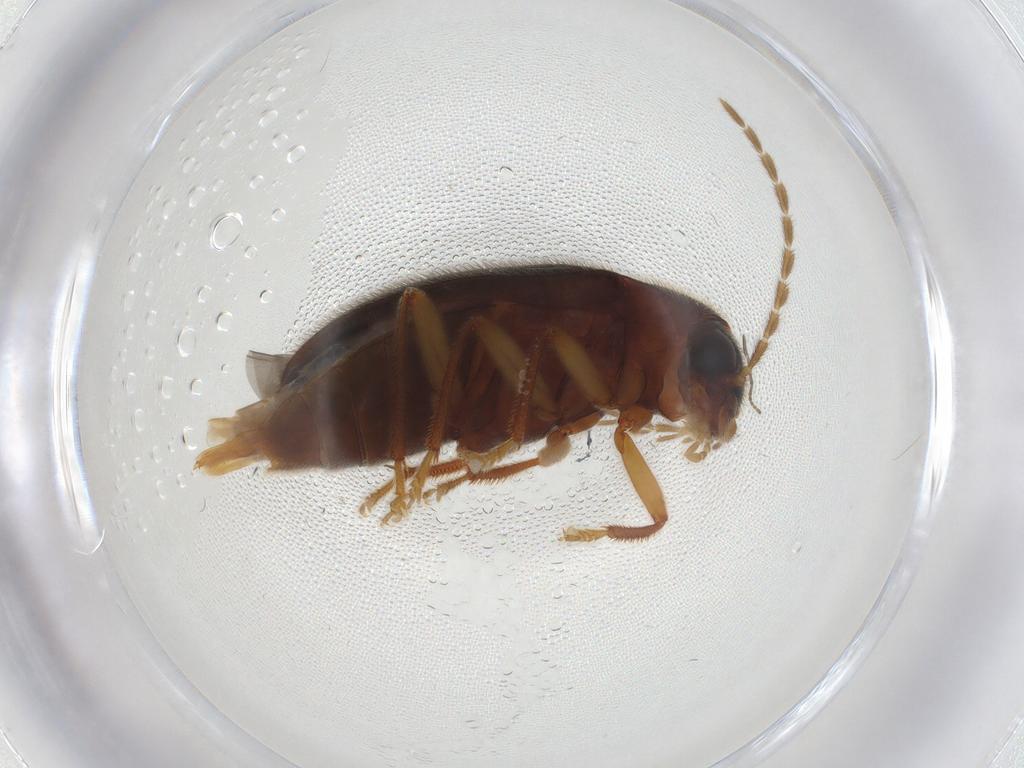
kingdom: Animalia
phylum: Arthropoda
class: Insecta
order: Coleoptera
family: Ptilodactylidae
